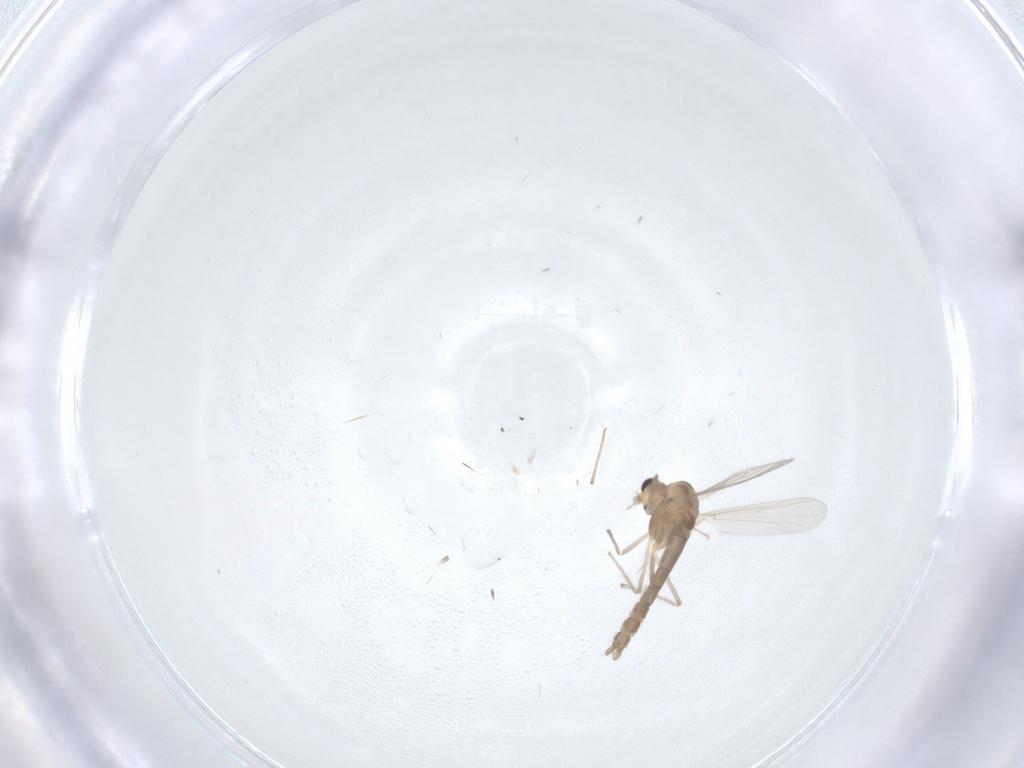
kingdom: Animalia
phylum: Arthropoda
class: Insecta
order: Diptera
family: Chironomidae
